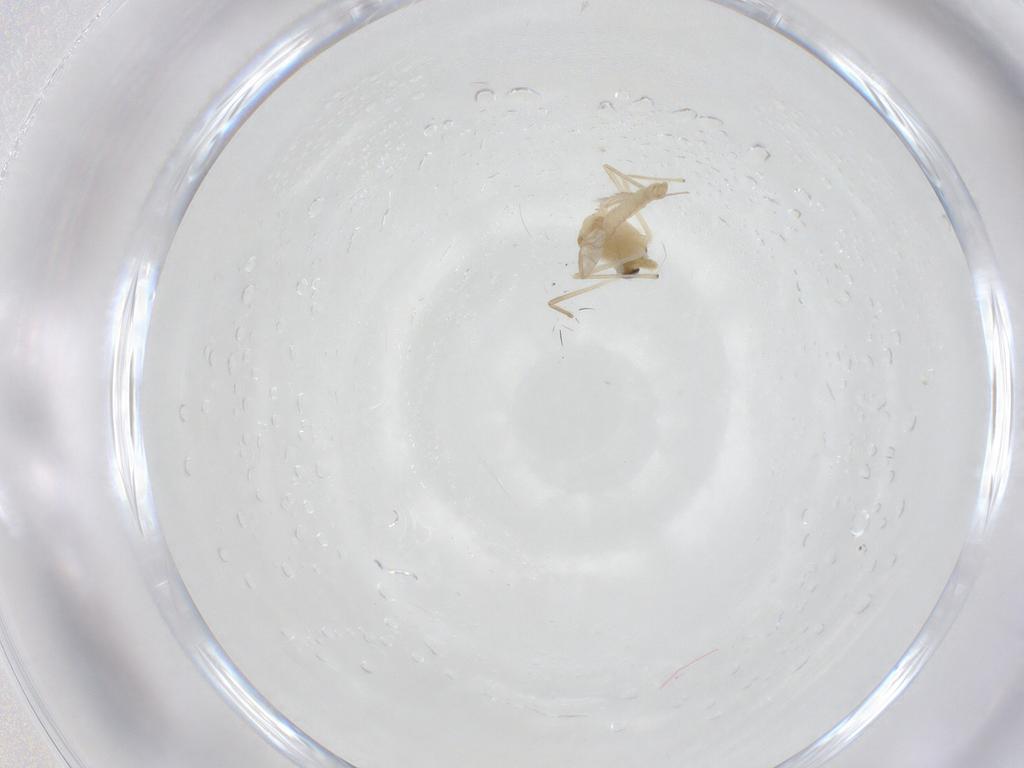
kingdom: Animalia
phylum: Arthropoda
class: Insecta
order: Diptera
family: Chironomidae
